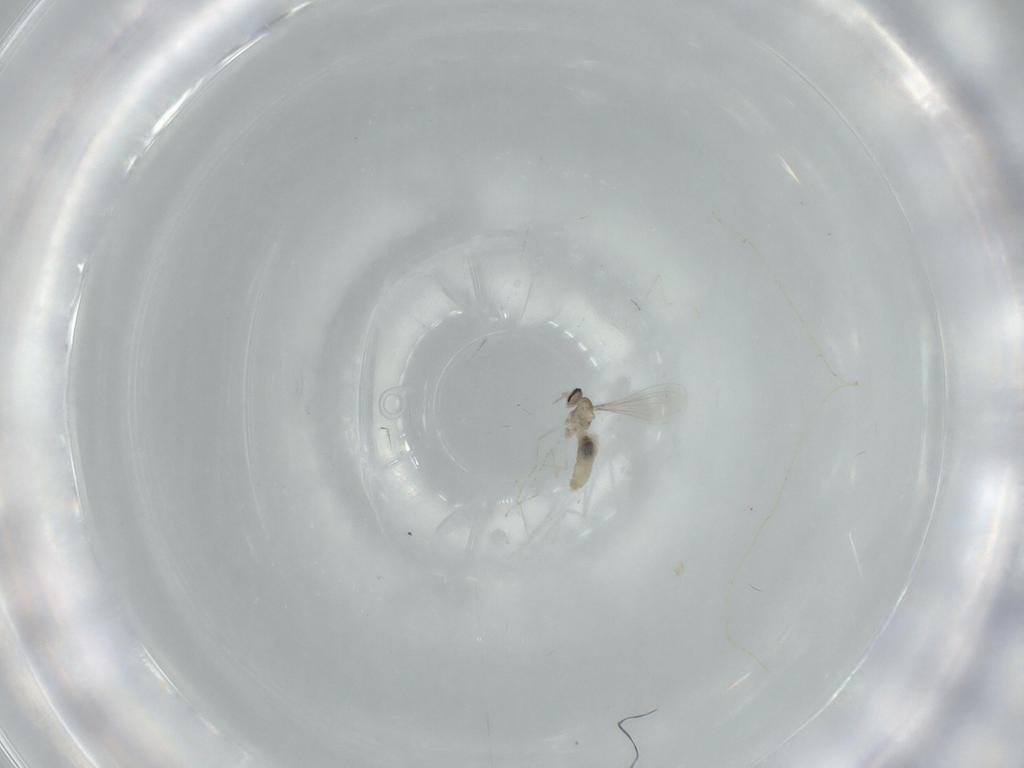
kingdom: Animalia
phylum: Arthropoda
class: Insecta
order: Diptera
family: Cecidomyiidae
